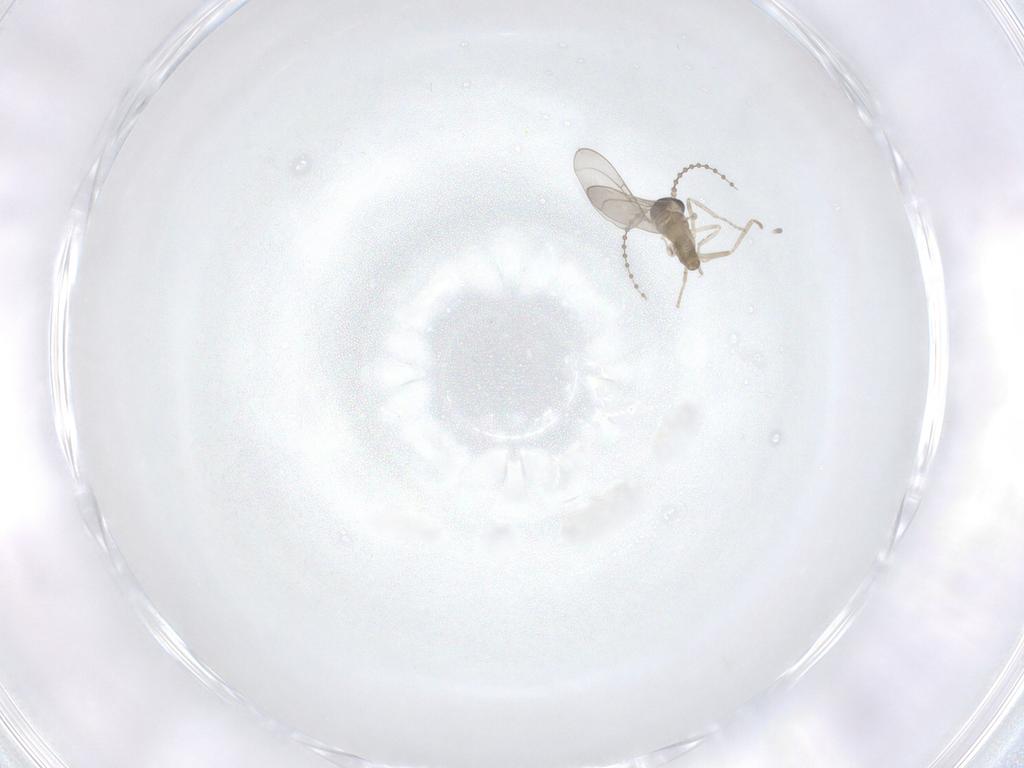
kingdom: Animalia
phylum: Arthropoda
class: Insecta
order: Diptera
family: Cecidomyiidae
